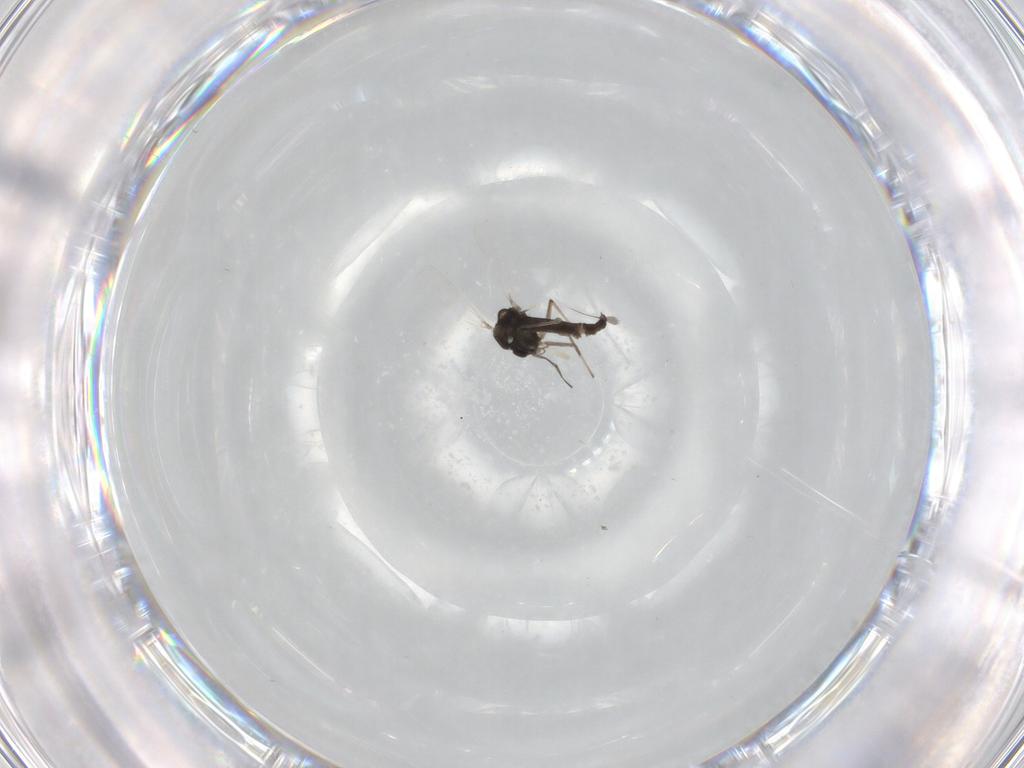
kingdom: Animalia
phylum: Arthropoda
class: Insecta
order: Diptera
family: Chironomidae
